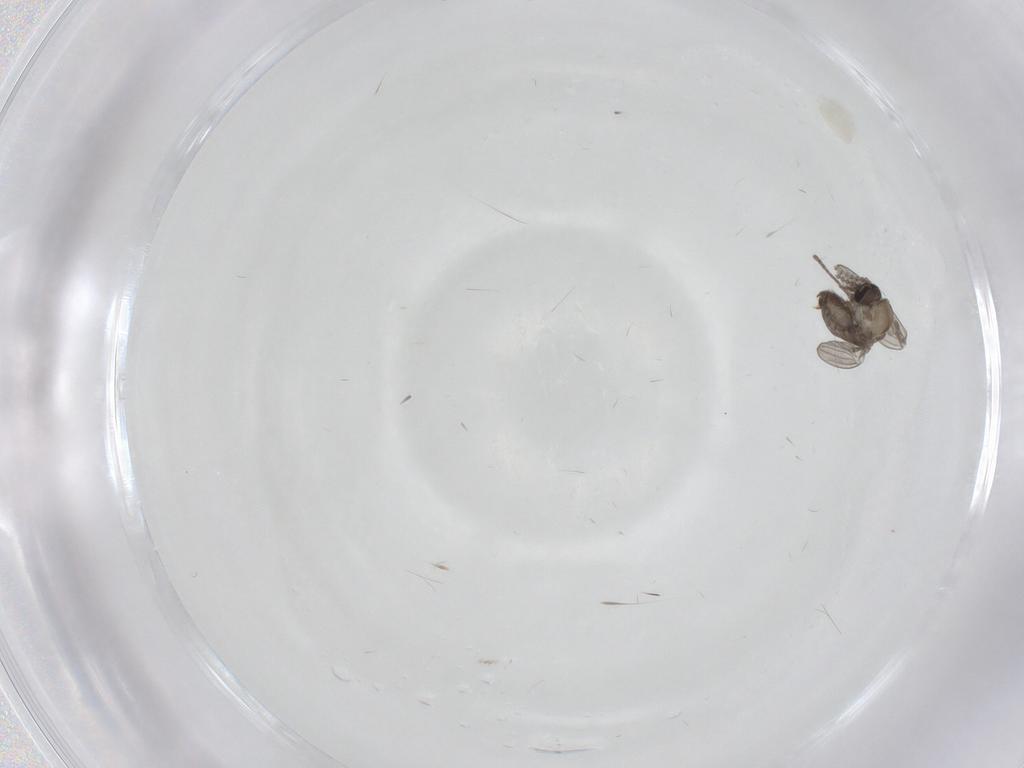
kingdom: Animalia
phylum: Arthropoda
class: Insecta
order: Diptera
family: Psychodidae
